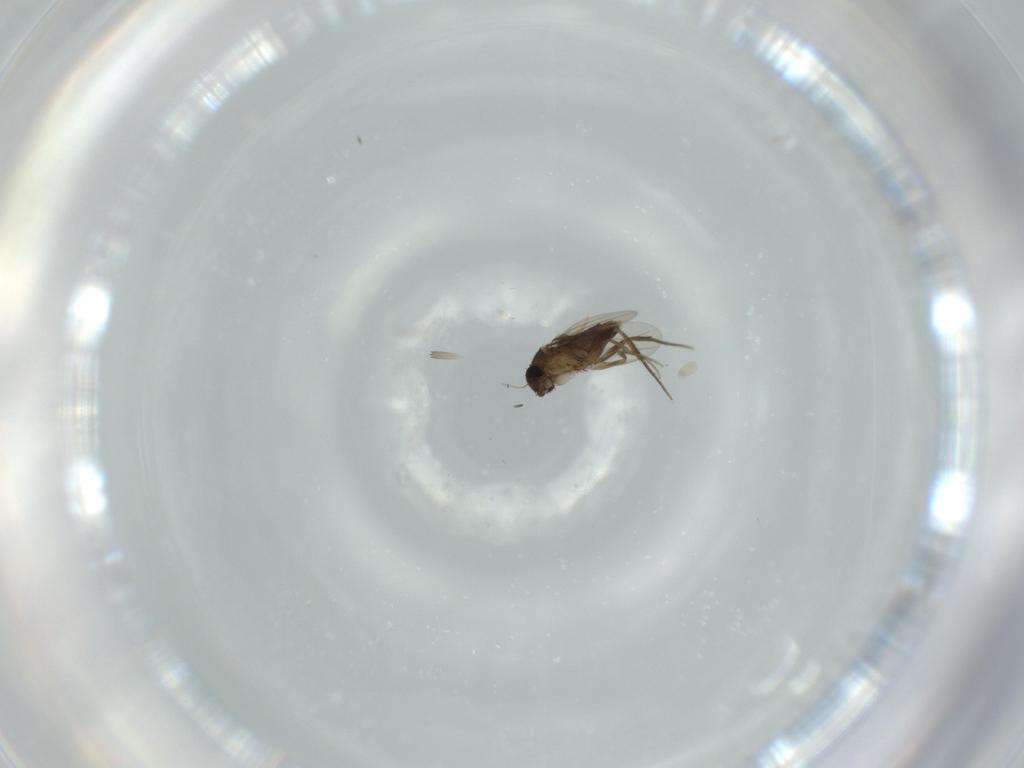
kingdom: Animalia
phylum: Arthropoda
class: Insecta
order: Diptera
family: Phoridae
